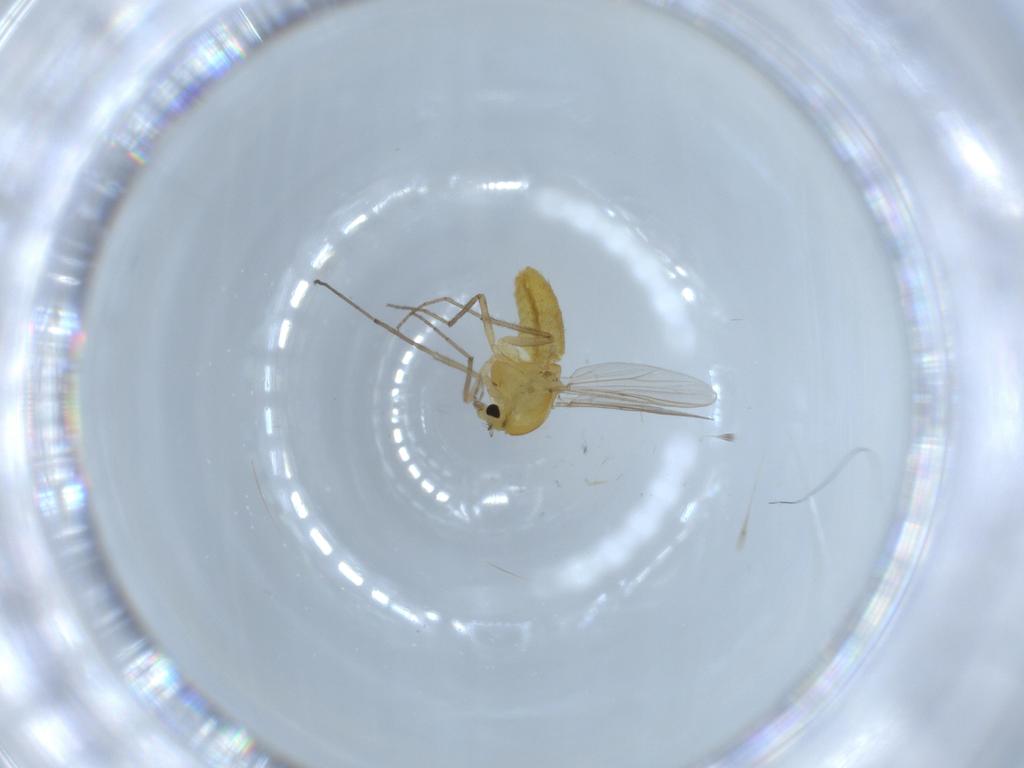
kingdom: Animalia
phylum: Arthropoda
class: Insecta
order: Diptera
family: Chironomidae
